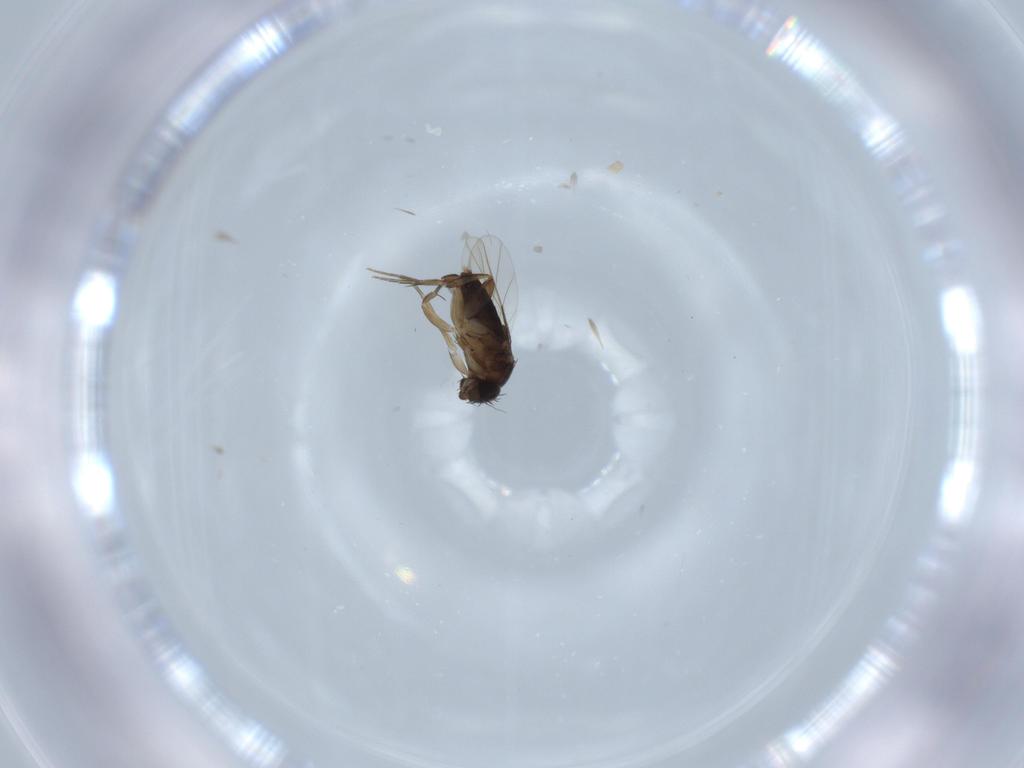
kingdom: Animalia
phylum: Arthropoda
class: Insecta
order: Diptera
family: Phoridae
